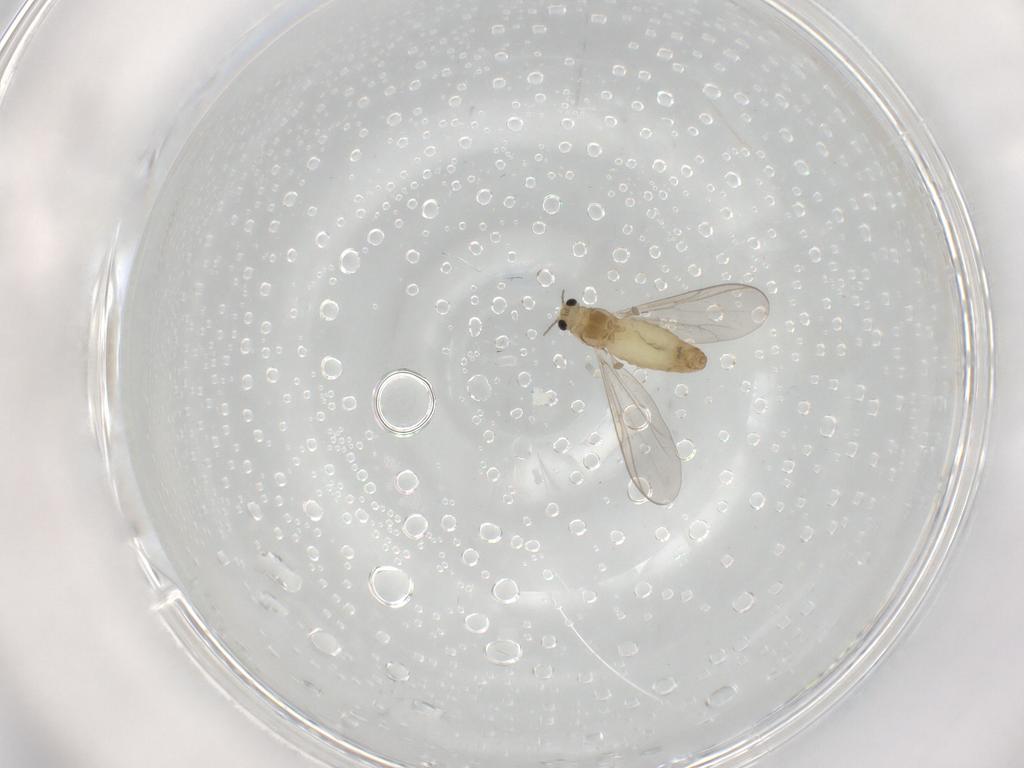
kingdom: Animalia
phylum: Arthropoda
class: Insecta
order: Diptera
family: Chironomidae
